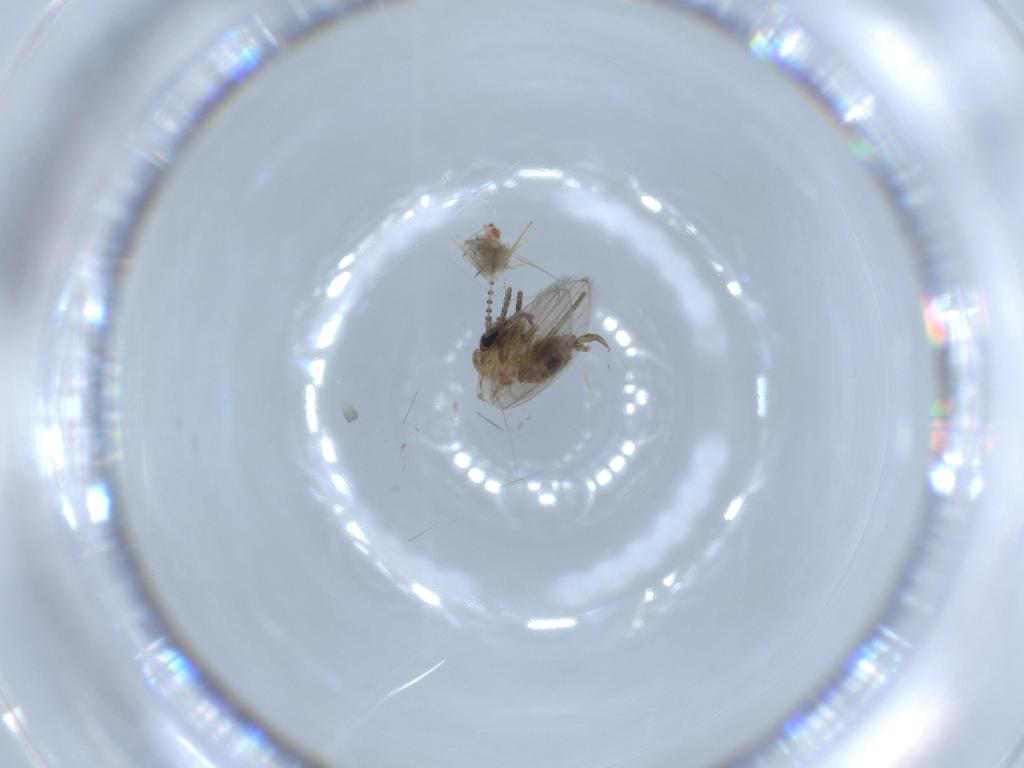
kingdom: Animalia
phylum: Arthropoda
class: Insecta
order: Diptera
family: Psychodidae
